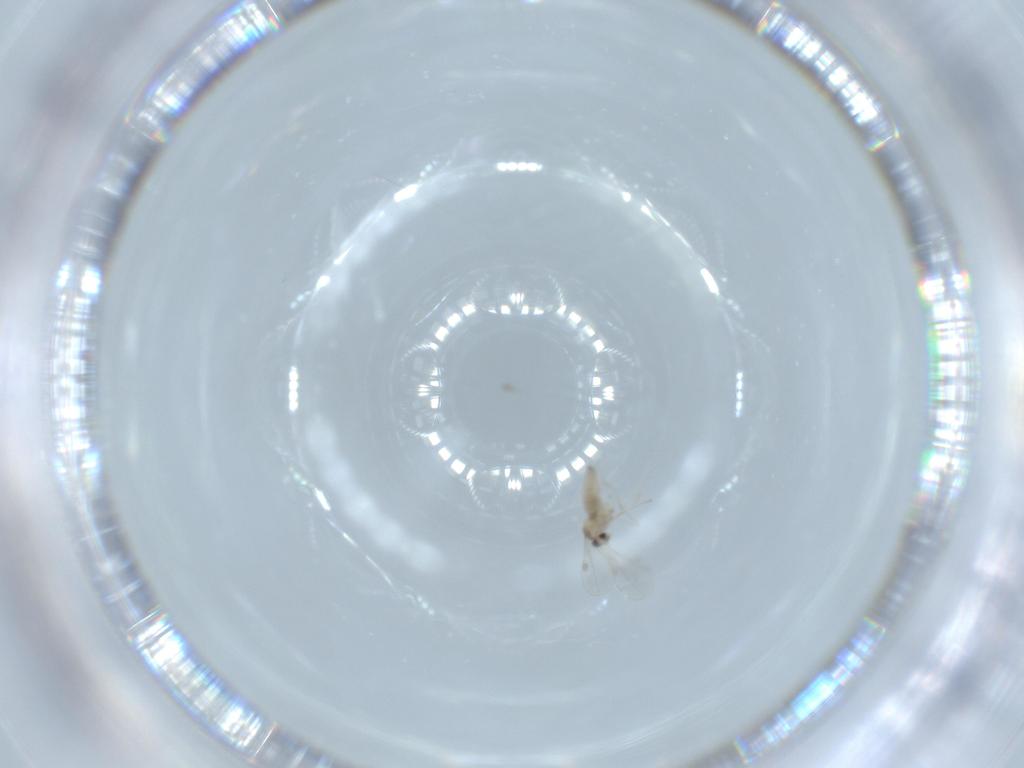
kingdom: Animalia
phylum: Arthropoda
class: Insecta
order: Diptera
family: Cecidomyiidae
